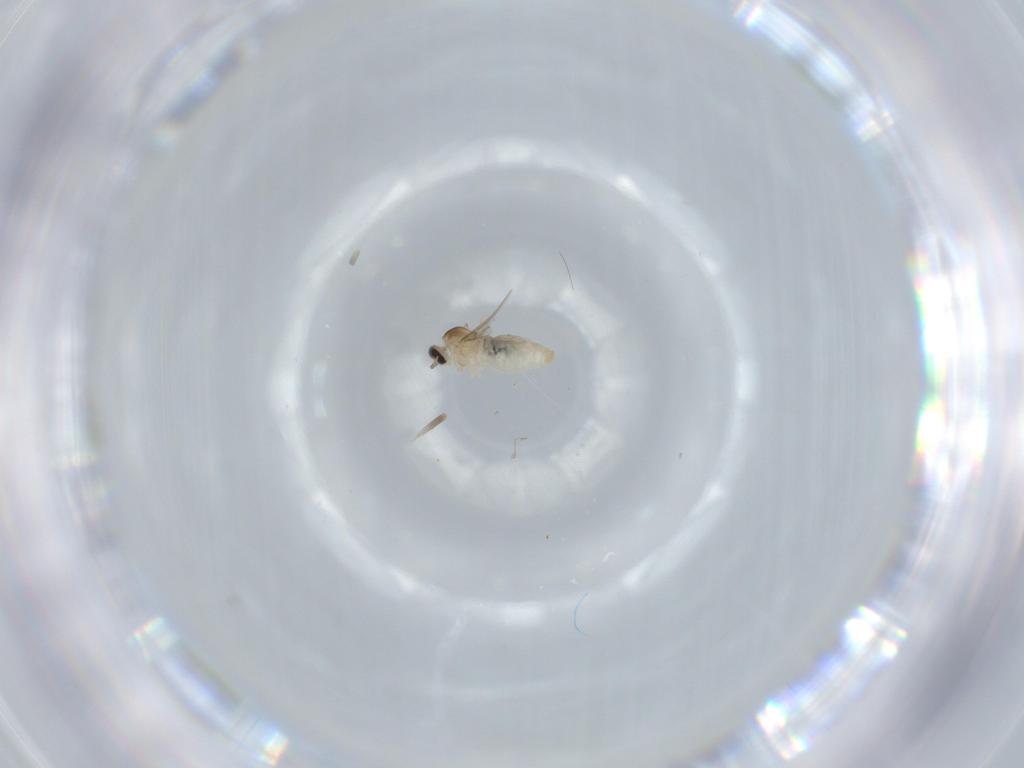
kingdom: Animalia
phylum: Arthropoda
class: Insecta
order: Diptera
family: Cecidomyiidae
